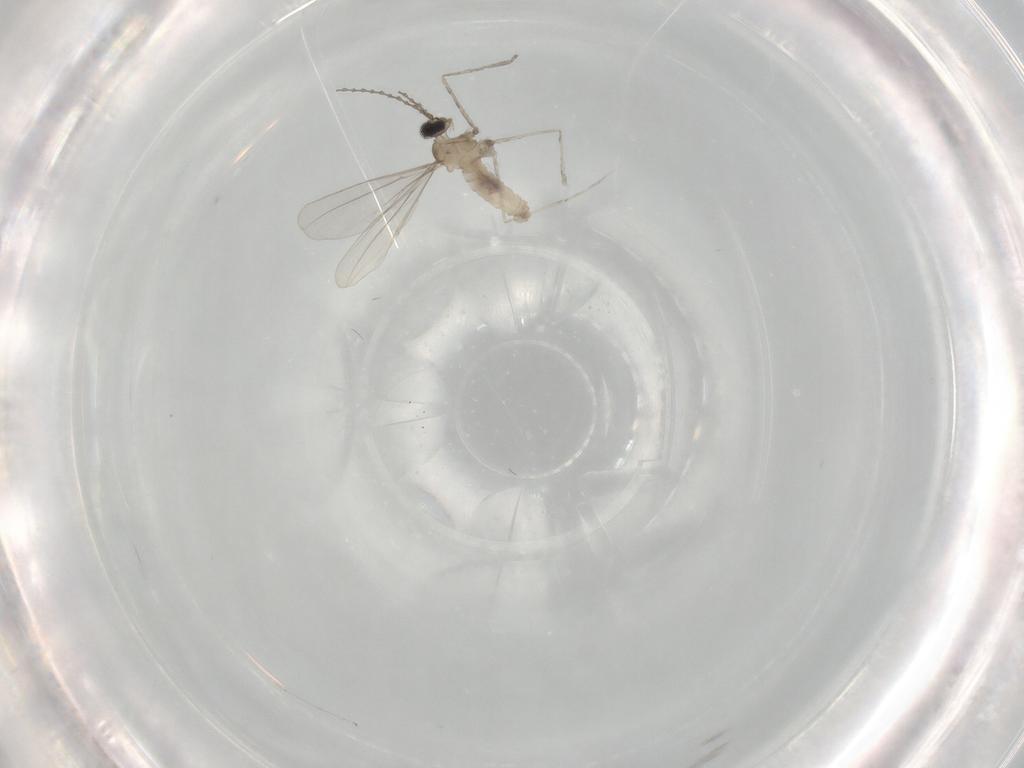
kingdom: Animalia
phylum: Arthropoda
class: Insecta
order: Diptera
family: Cecidomyiidae
